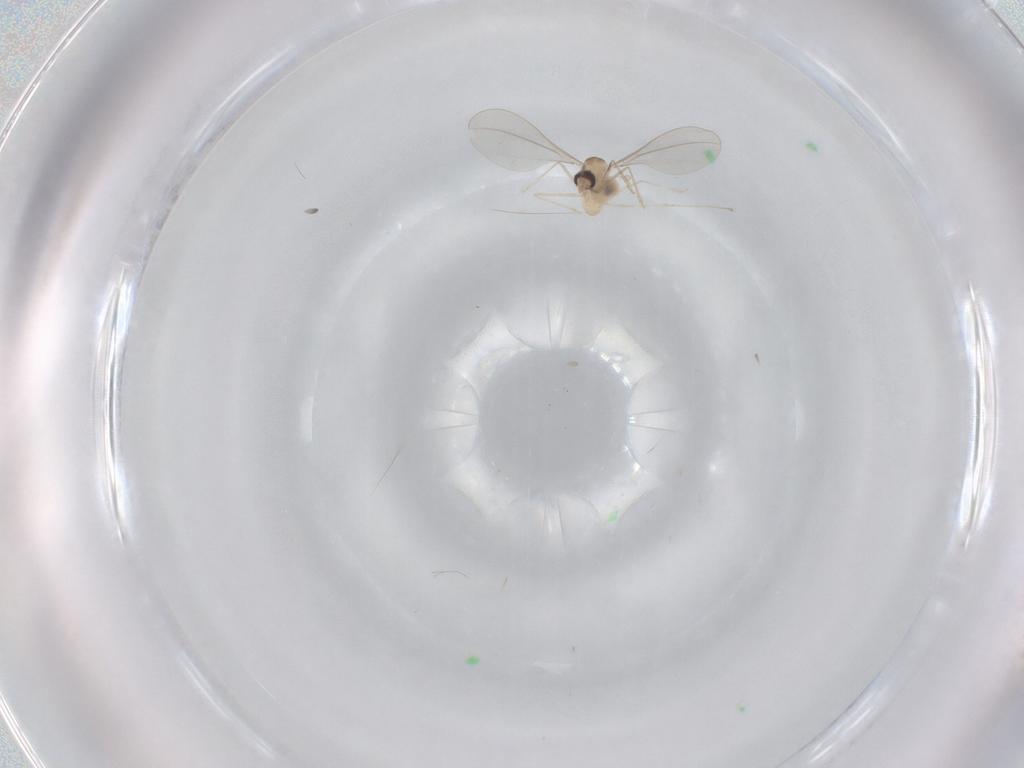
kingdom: Animalia
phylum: Arthropoda
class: Insecta
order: Diptera
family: Cecidomyiidae
